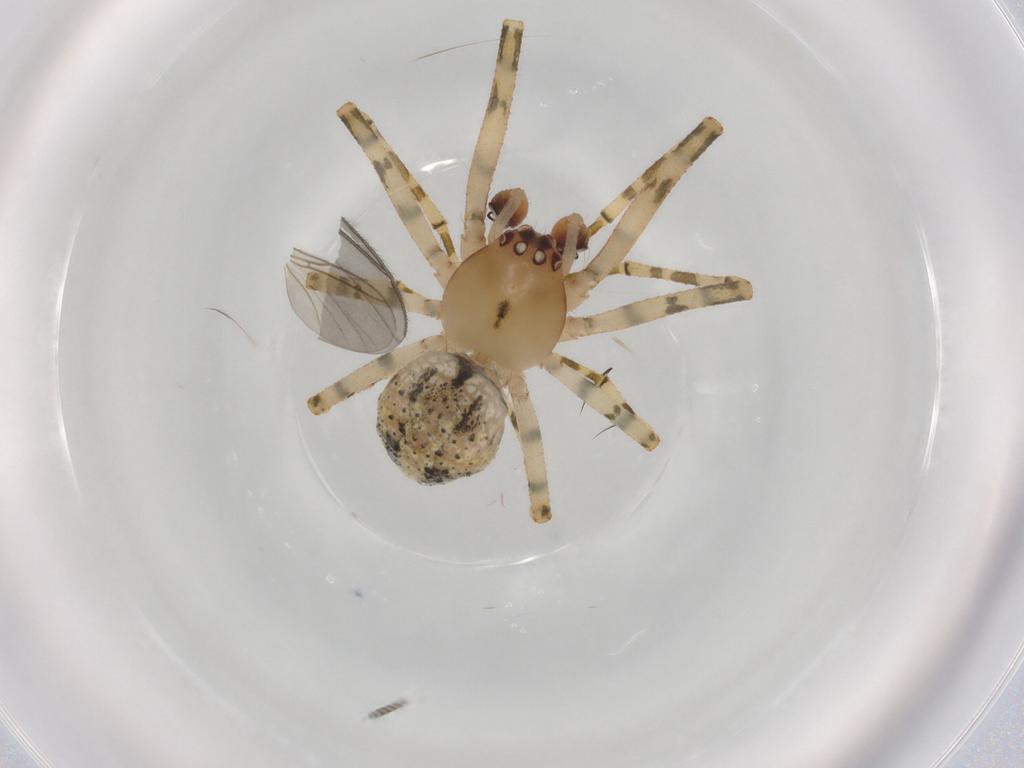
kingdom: Animalia
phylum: Arthropoda
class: Arachnida
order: Araneae
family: Theridiidae
